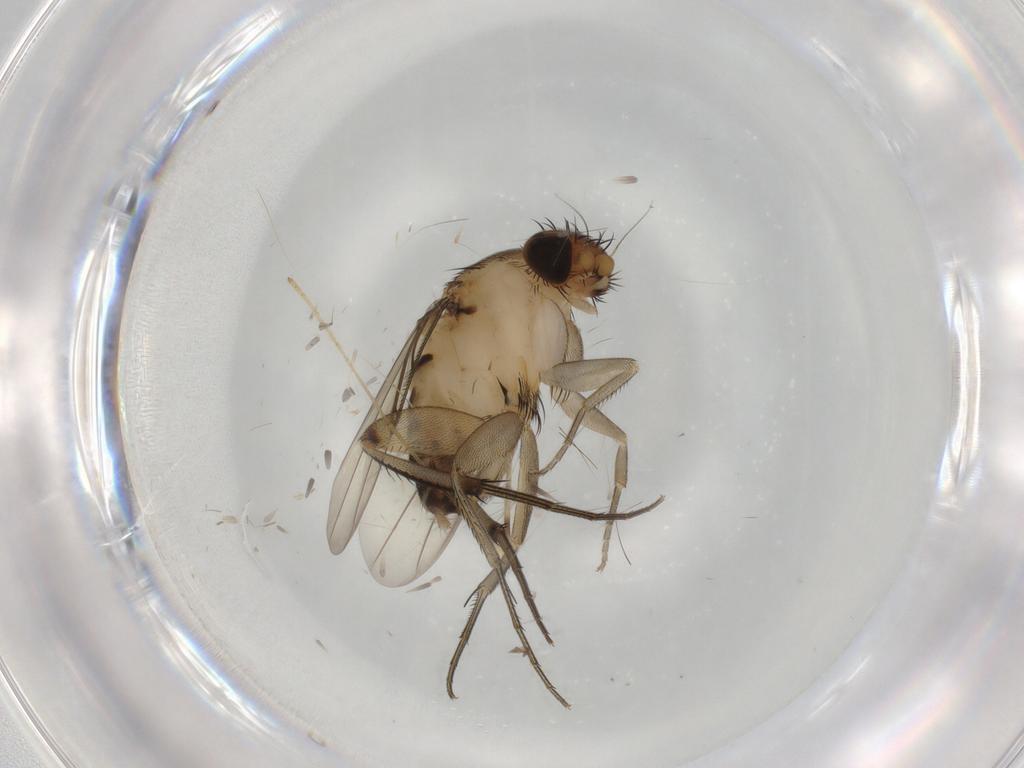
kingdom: Animalia
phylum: Arthropoda
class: Insecta
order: Diptera
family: Phoridae
